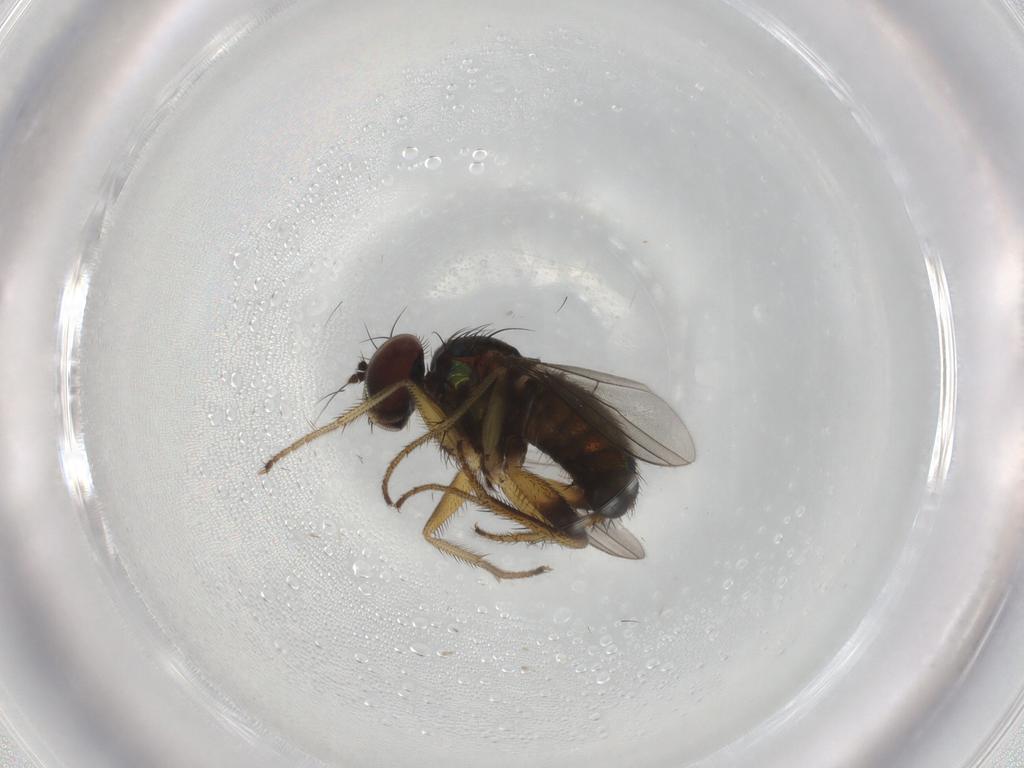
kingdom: Animalia
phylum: Arthropoda
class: Insecta
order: Diptera
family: Dolichopodidae
